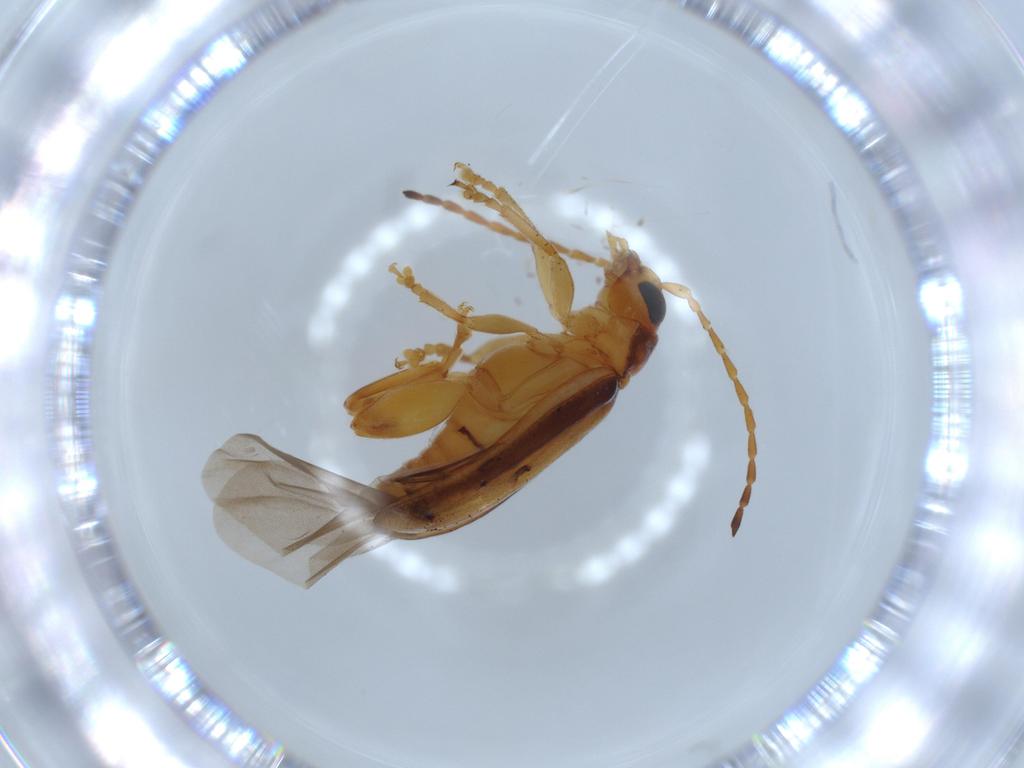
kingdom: Animalia
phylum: Arthropoda
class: Insecta
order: Coleoptera
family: Chrysomelidae
